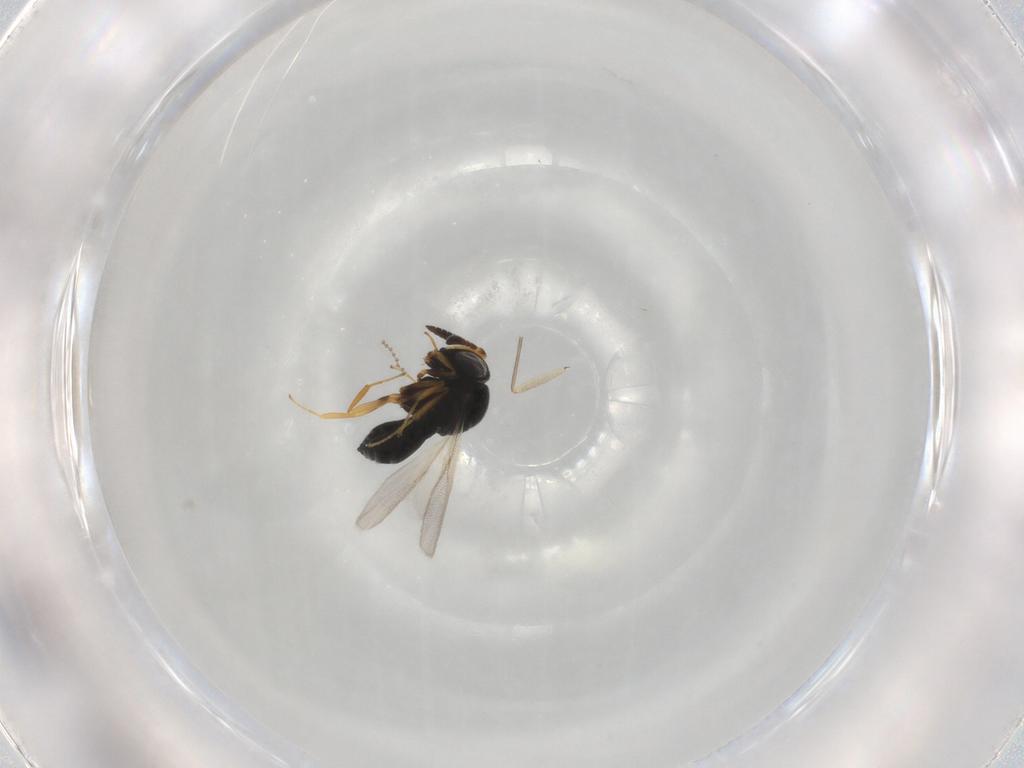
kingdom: Animalia
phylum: Arthropoda
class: Insecta
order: Hymenoptera
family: Scelionidae
